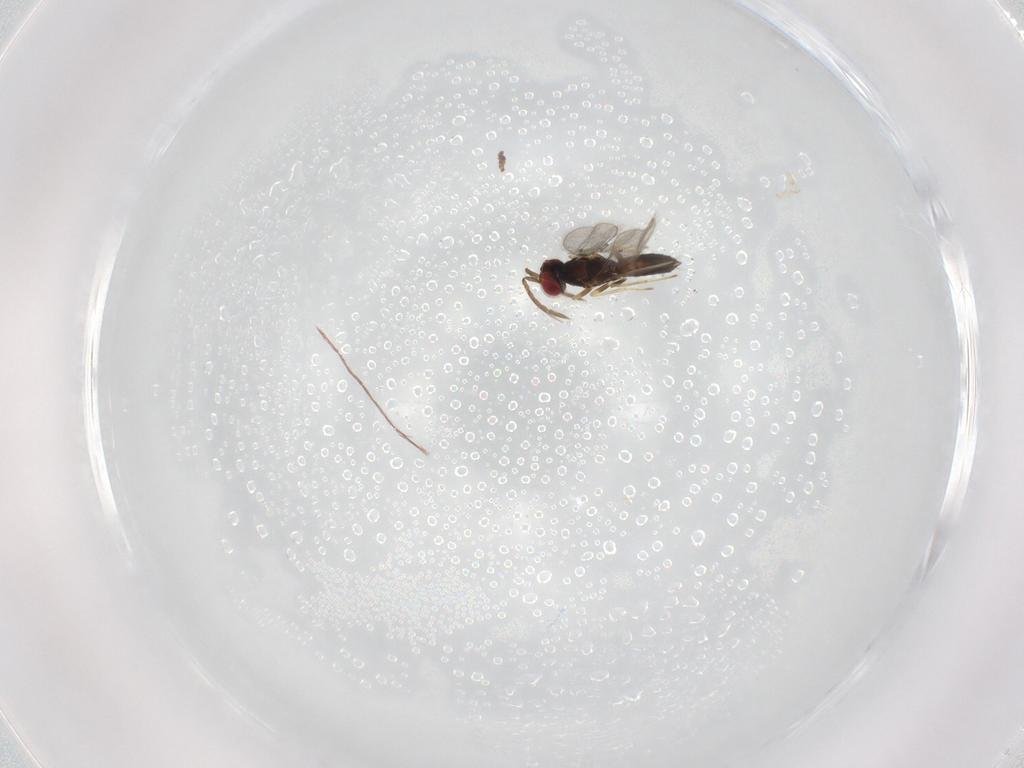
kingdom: Animalia
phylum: Arthropoda
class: Insecta
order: Hymenoptera
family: Eulophidae
